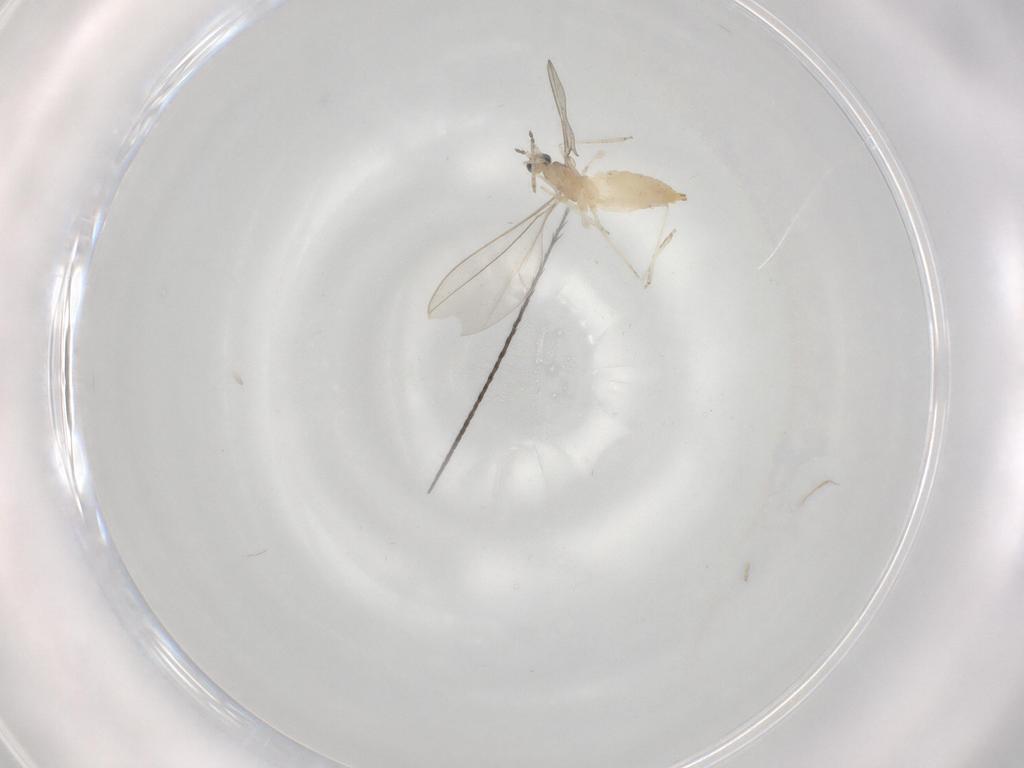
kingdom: Animalia
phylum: Arthropoda
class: Insecta
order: Diptera
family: Cecidomyiidae
